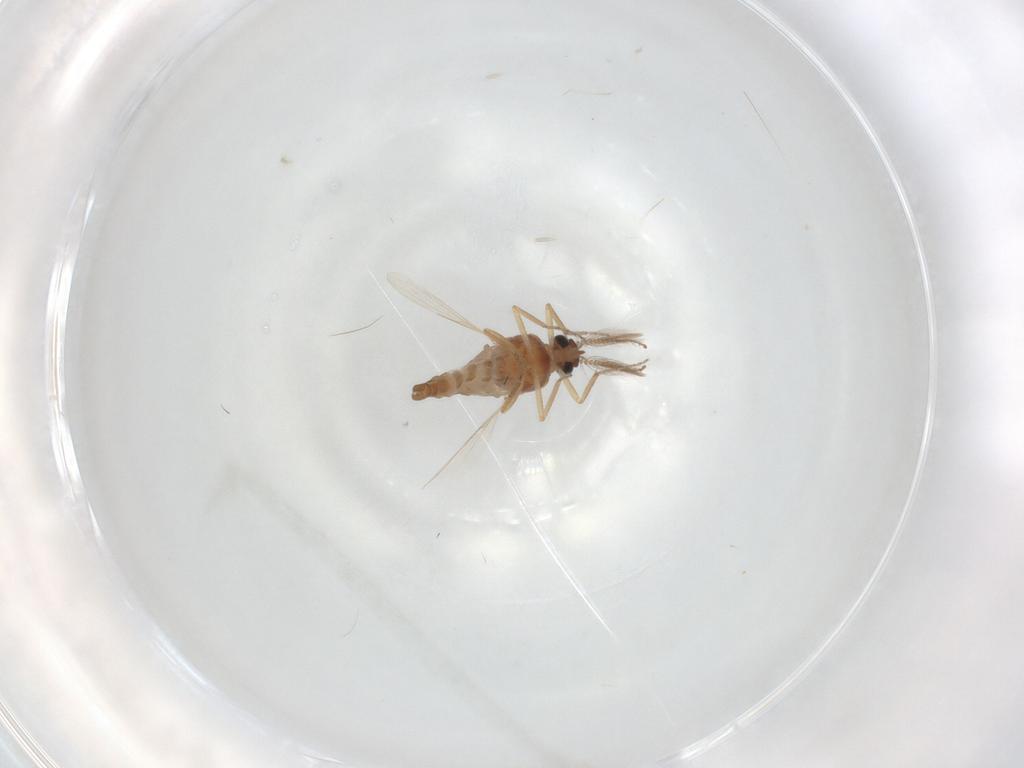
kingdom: Animalia
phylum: Arthropoda
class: Insecta
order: Diptera
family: Ceratopogonidae
